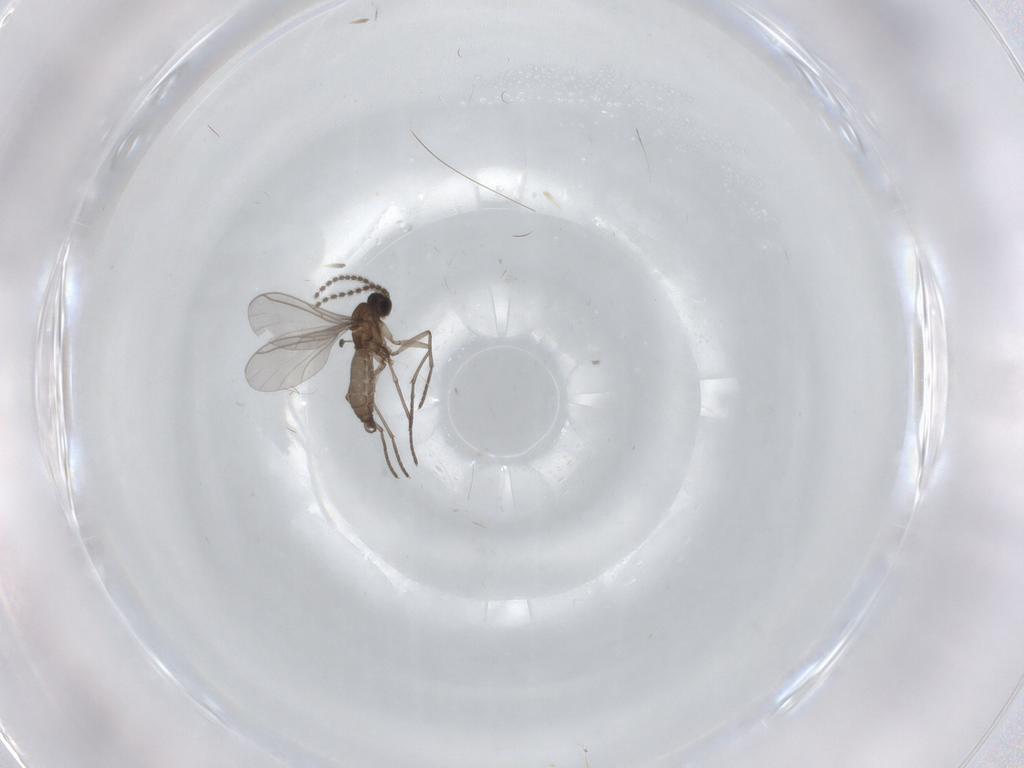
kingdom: Animalia
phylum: Arthropoda
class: Insecta
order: Diptera
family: Cecidomyiidae
